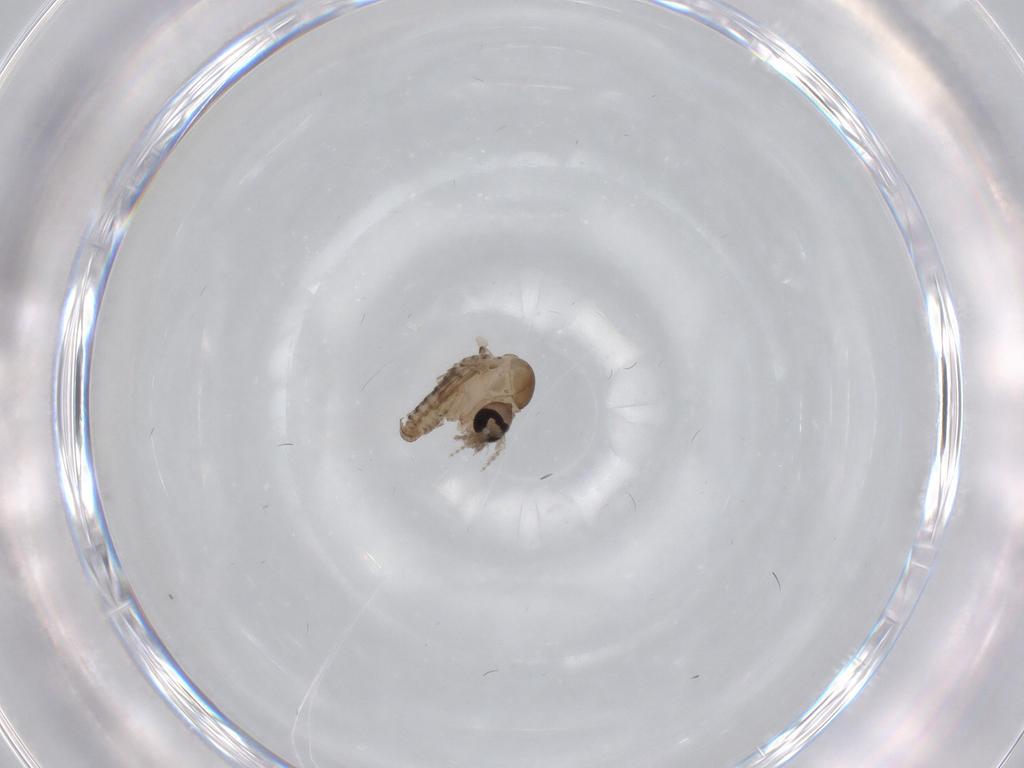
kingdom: Animalia
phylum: Arthropoda
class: Insecta
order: Diptera
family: Psychodidae
